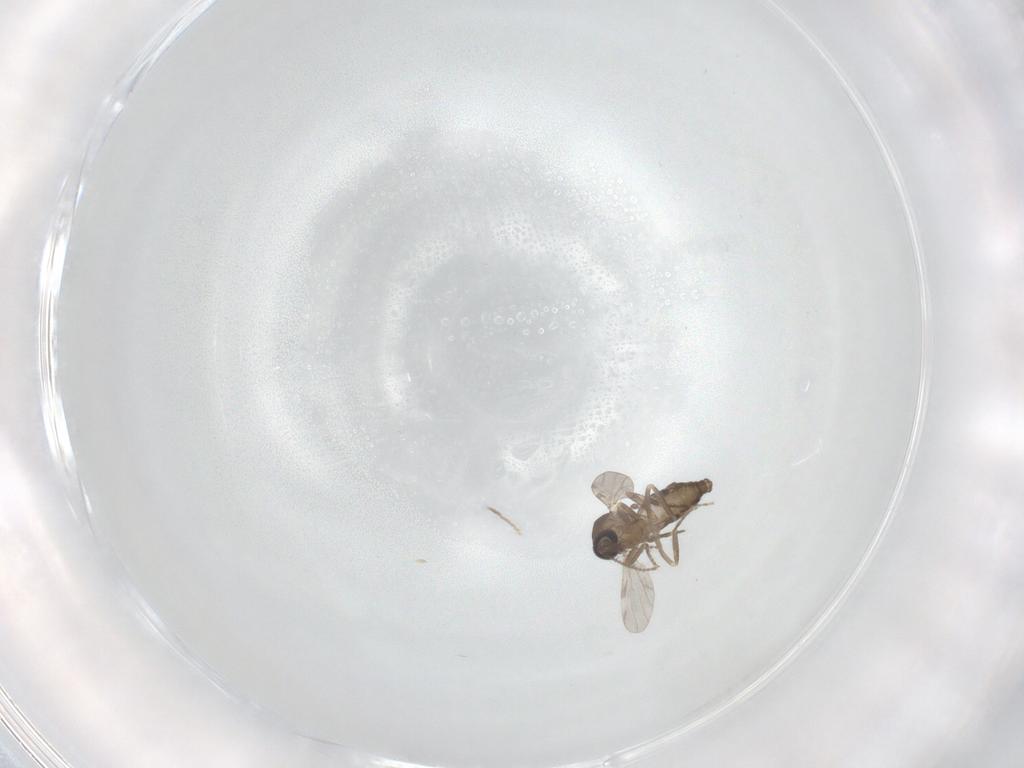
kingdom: Animalia
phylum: Arthropoda
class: Insecta
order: Diptera
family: Ceratopogonidae
